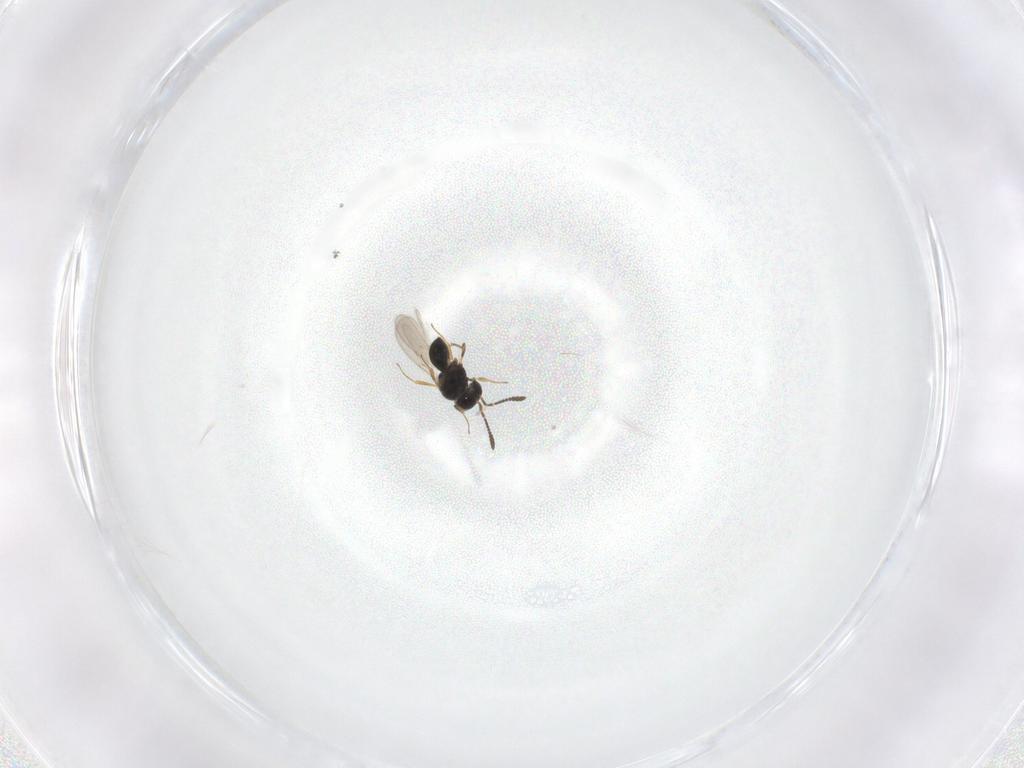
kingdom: Animalia
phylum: Arthropoda
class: Insecta
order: Hymenoptera
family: Scelionidae
